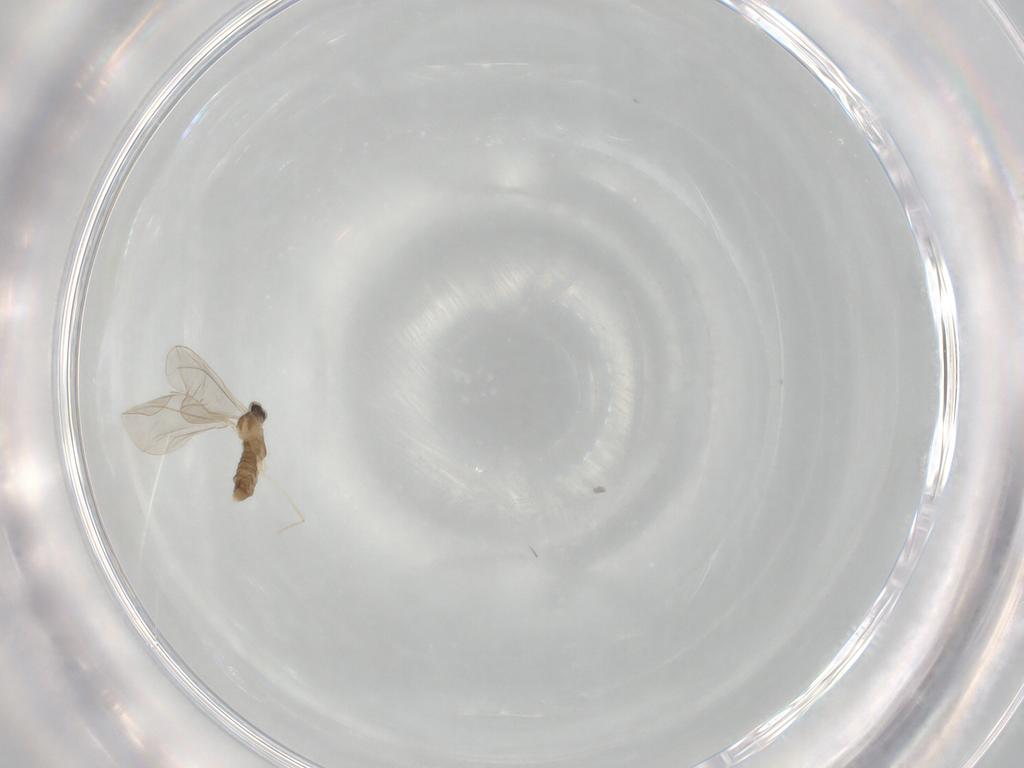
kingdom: Animalia
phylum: Arthropoda
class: Insecta
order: Diptera
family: Cecidomyiidae
